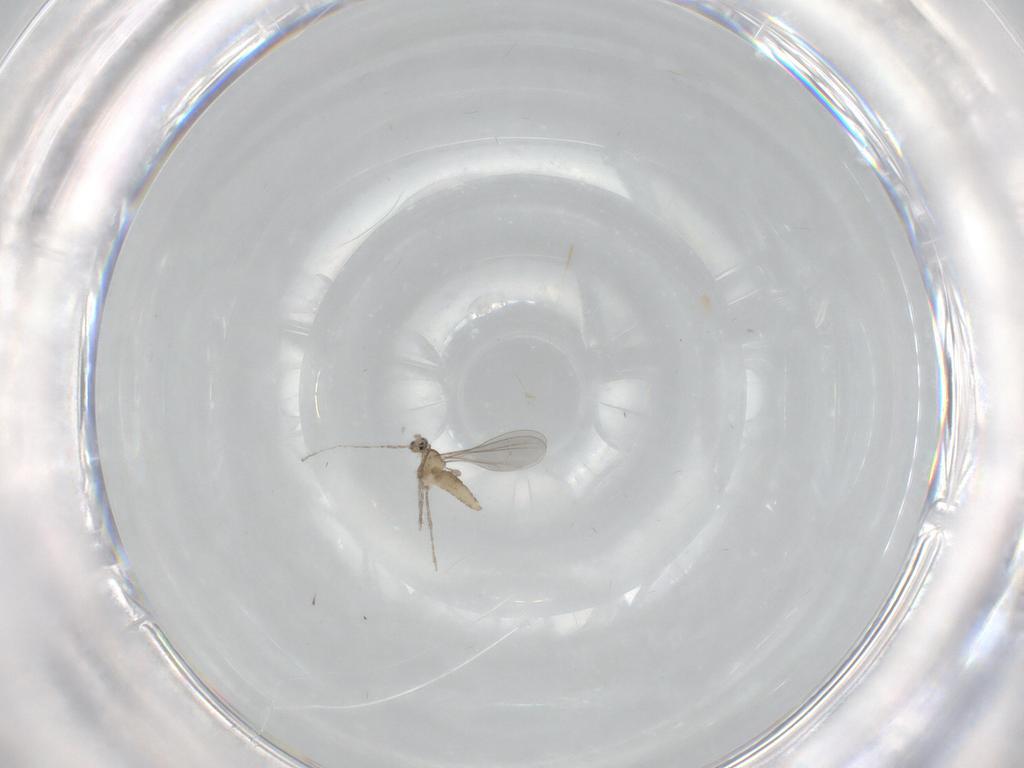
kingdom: Animalia
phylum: Arthropoda
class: Insecta
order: Diptera
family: Cecidomyiidae
